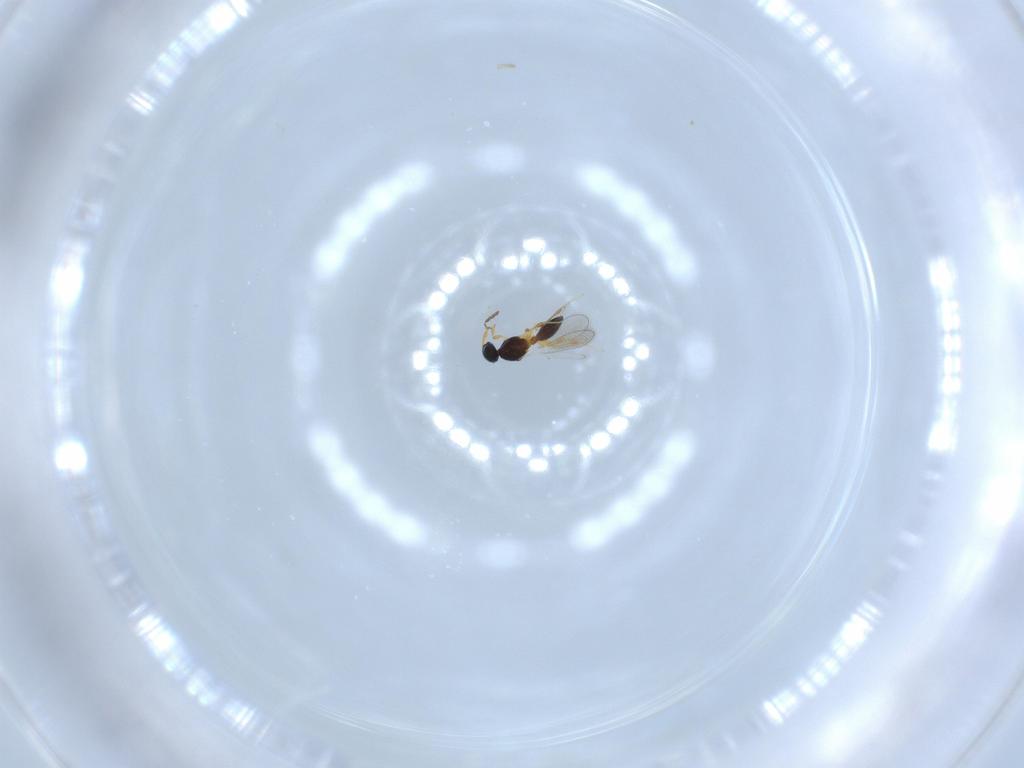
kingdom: Animalia
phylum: Arthropoda
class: Insecta
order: Hymenoptera
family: Platygastridae
